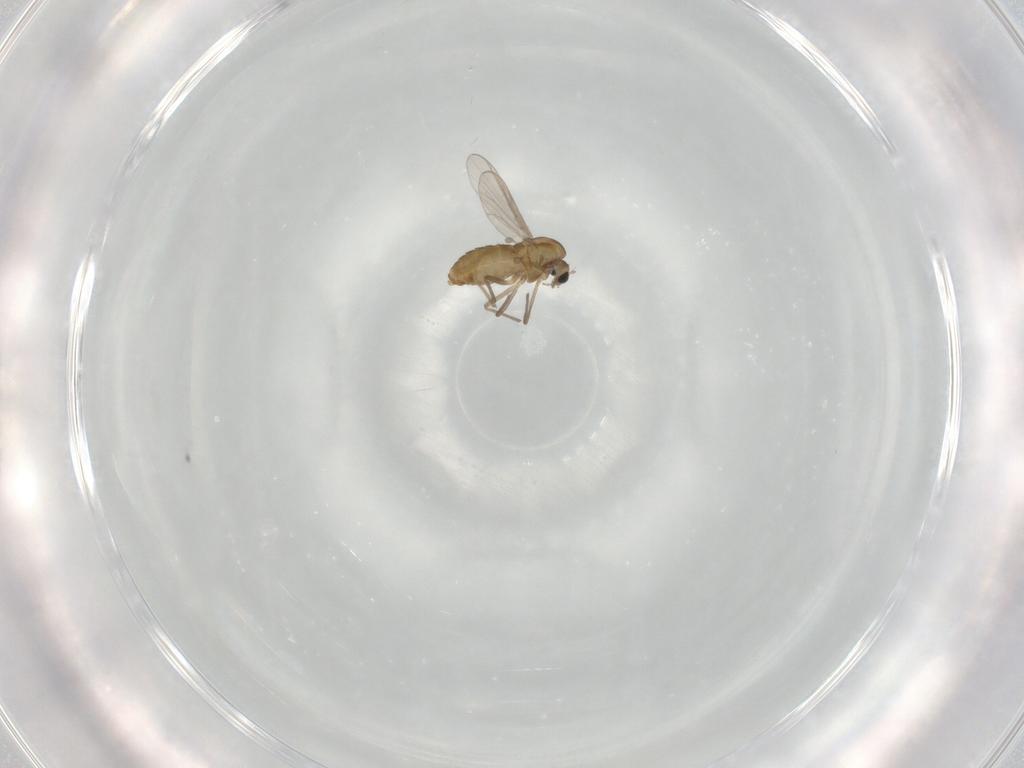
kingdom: Animalia
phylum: Arthropoda
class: Insecta
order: Diptera
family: Chironomidae
